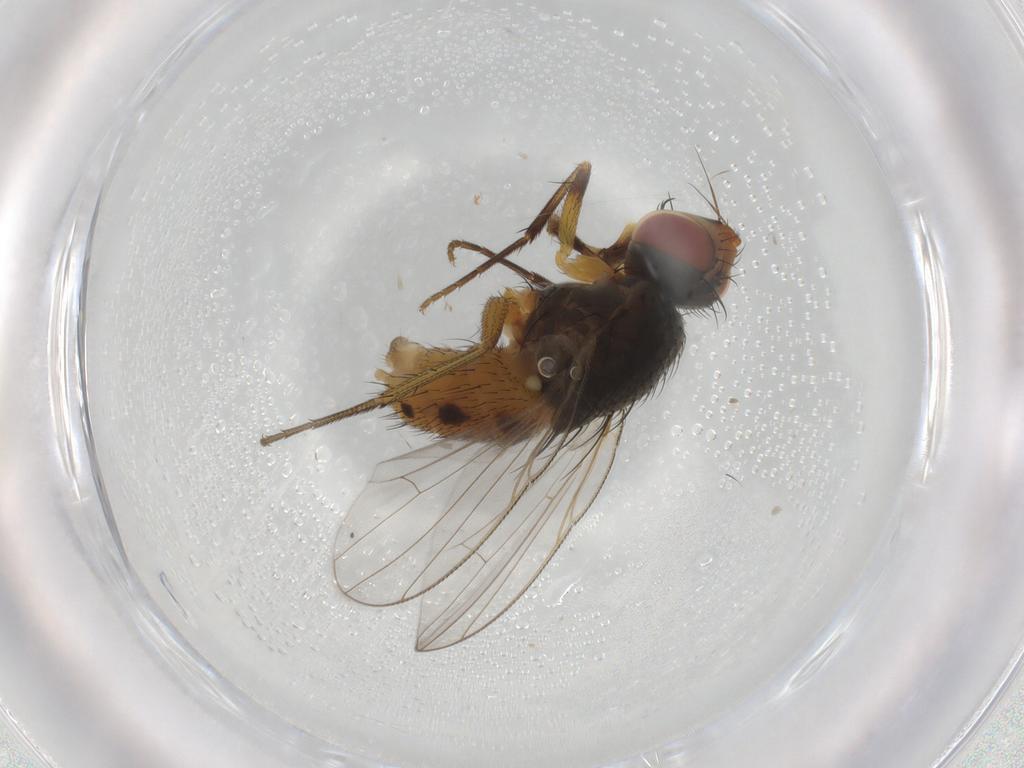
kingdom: Animalia
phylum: Arthropoda
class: Insecta
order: Diptera
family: Muscidae
